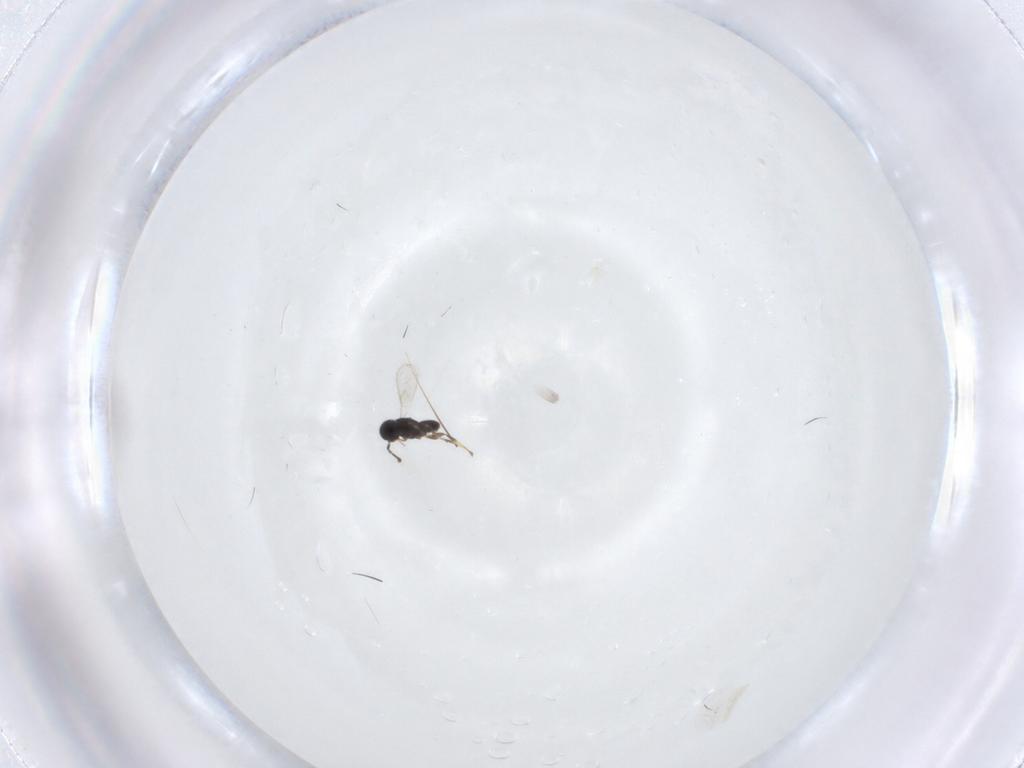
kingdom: Animalia
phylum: Arthropoda
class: Insecta
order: Hymenoptera
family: Scelionidae
